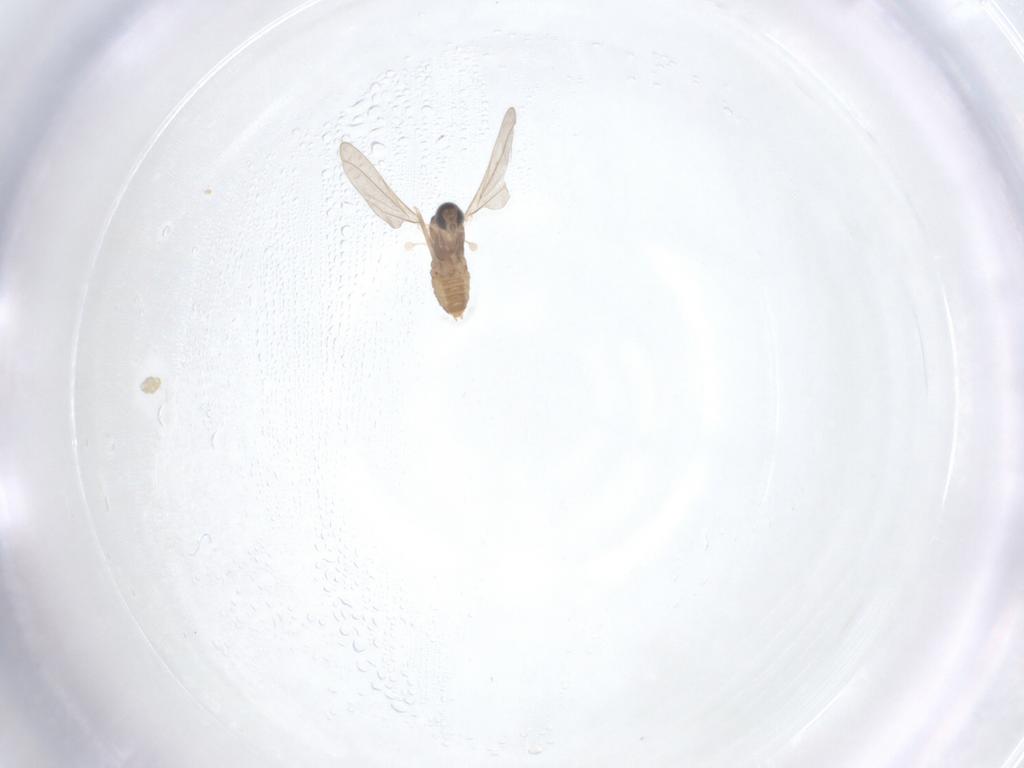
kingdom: Animalia
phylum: Arthropoda
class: Insecta
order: Diptera
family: Cecidomyiidae
